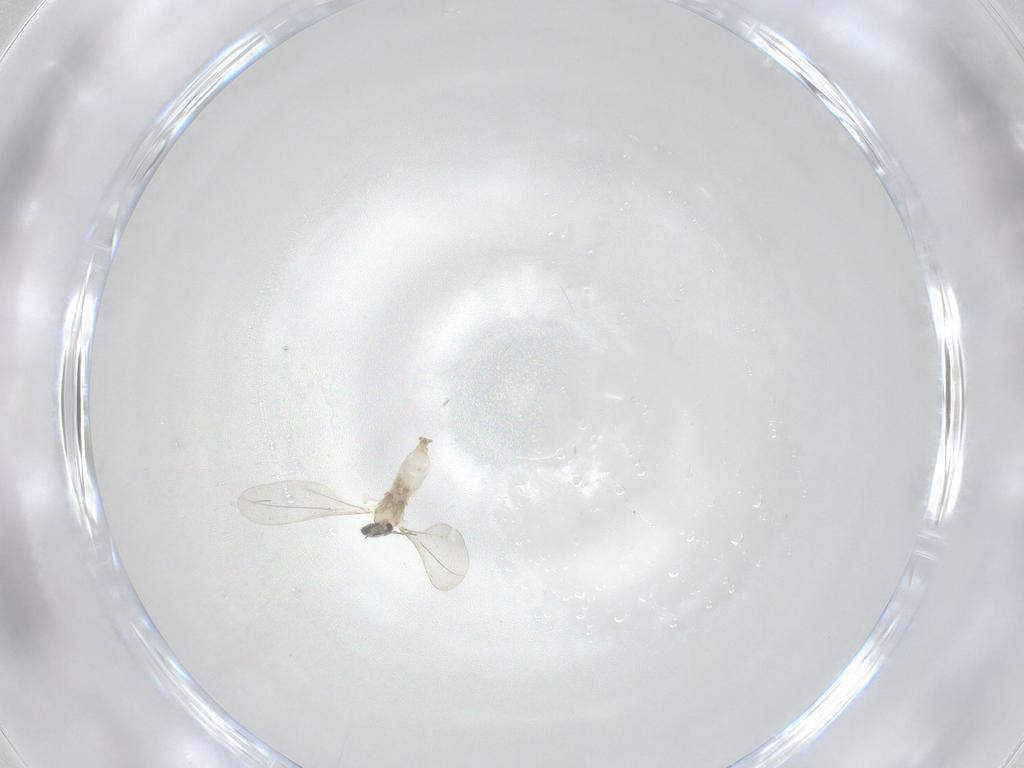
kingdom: Animalia
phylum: Arthropoda
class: Insecta
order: Diptera
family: Cecidomyiidae
